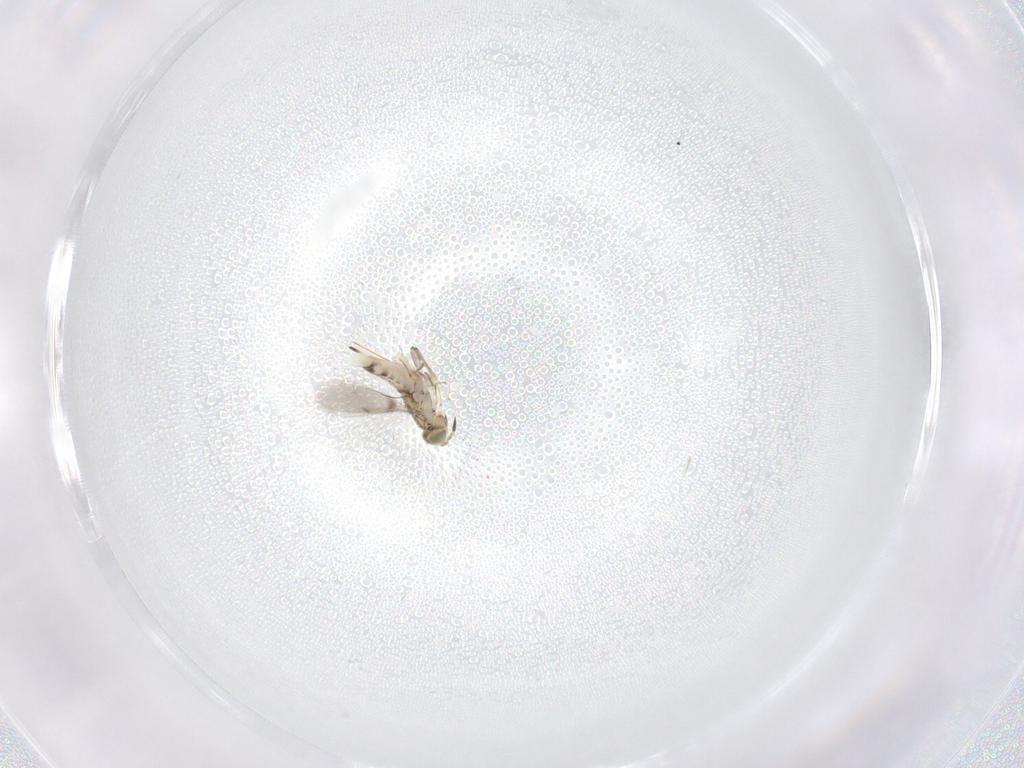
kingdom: Animalia
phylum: Arthropoda
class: Insecta
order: Hymenoptera
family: Aphelinidae
